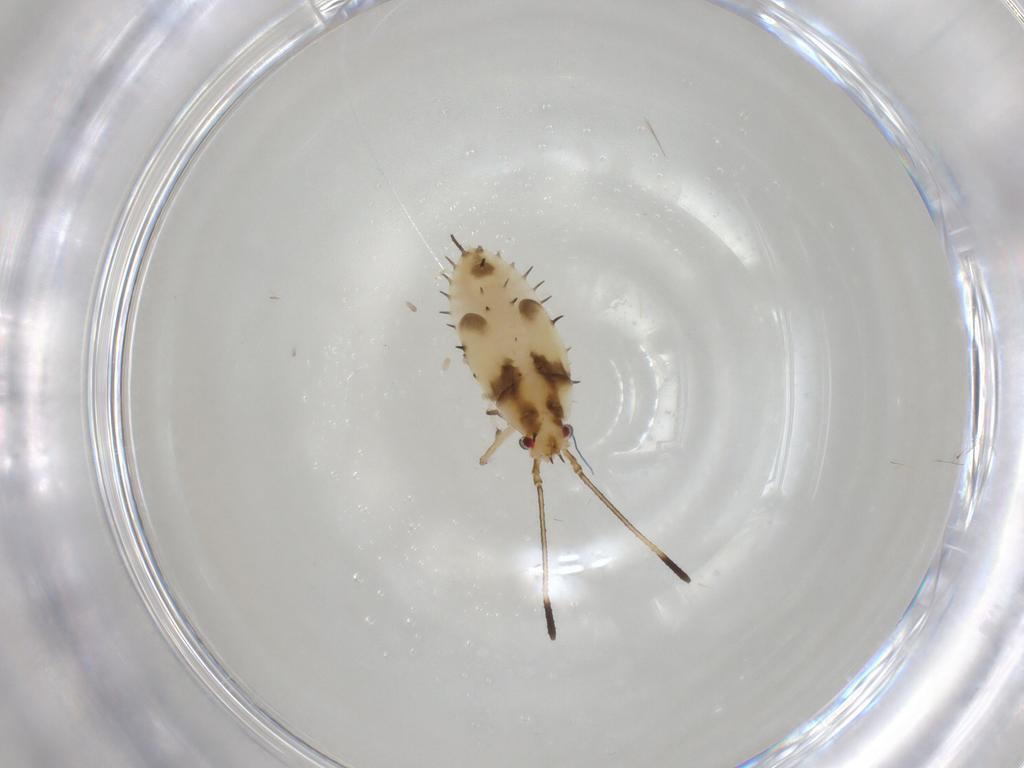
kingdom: Animalia
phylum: Arthropoda
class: Insecta
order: Hemiptera
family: Tingidae
